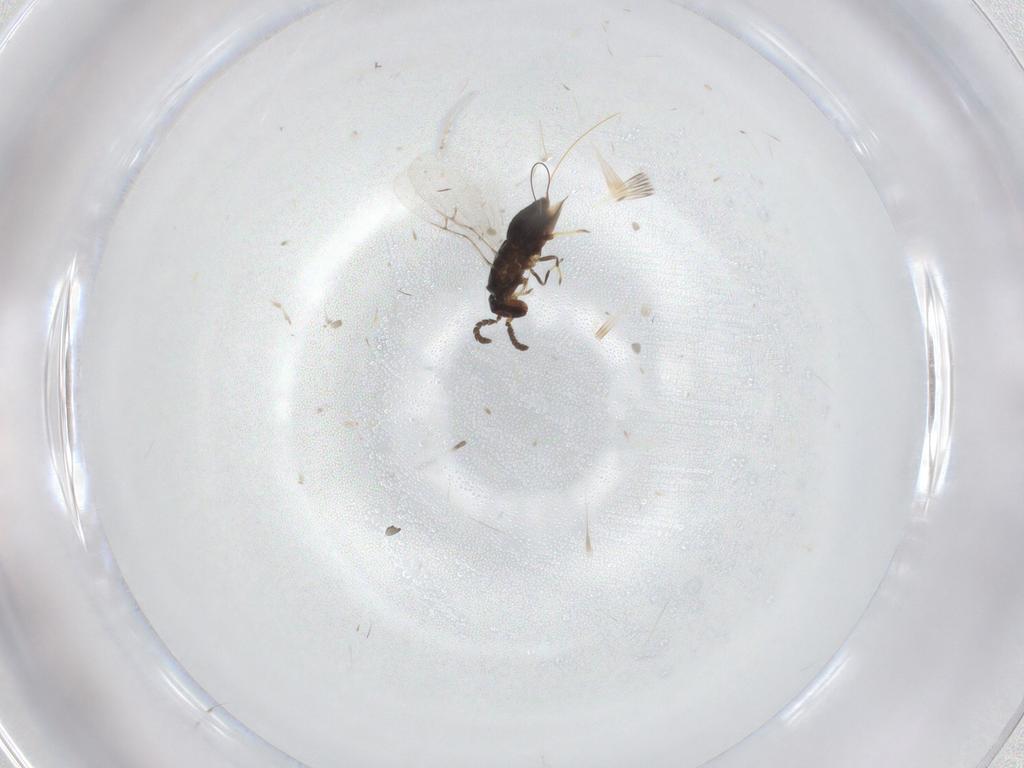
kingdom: Animalia
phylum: Arthropoda
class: Insecta
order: Hymenoptera
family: Agaonidae
